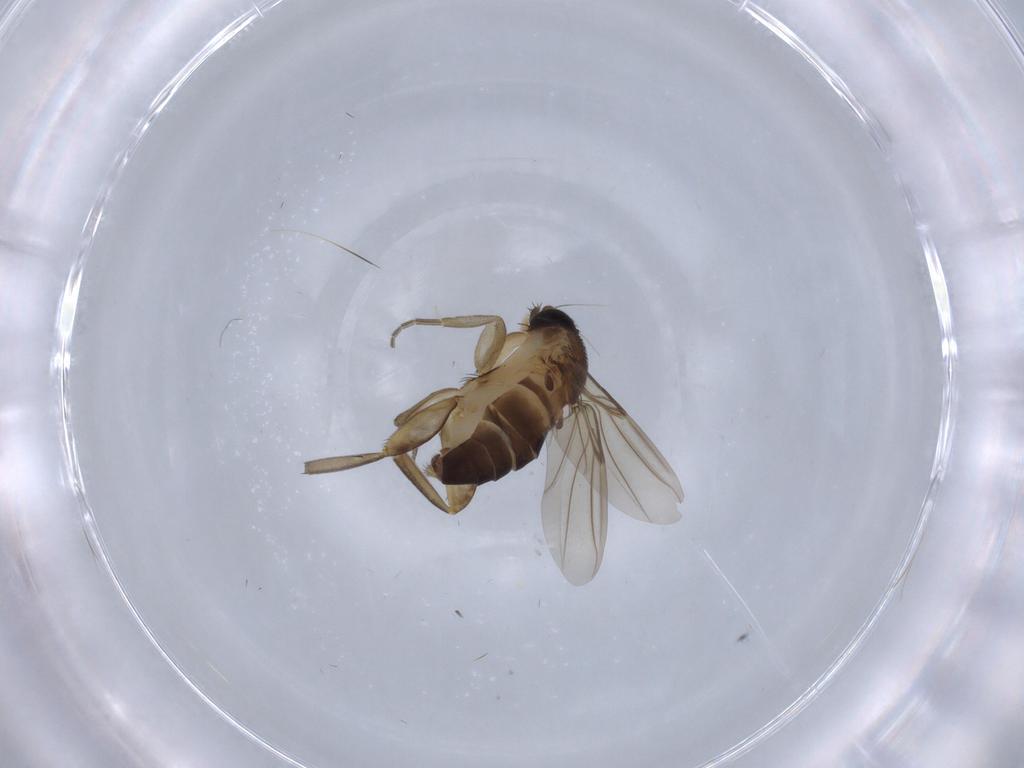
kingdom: Animalia
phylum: Arthropoda
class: Insecta
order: Diptera
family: Phoridae
